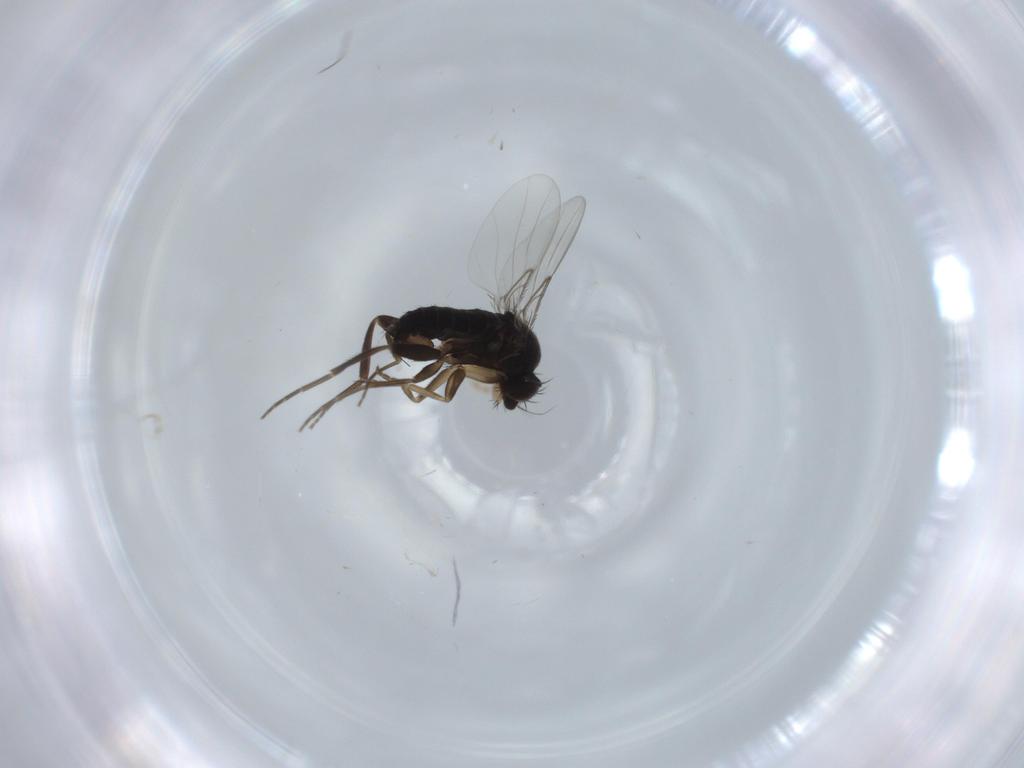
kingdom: Animalia
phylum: Arthropoda
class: Insecta
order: Diptera
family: Phoridae
